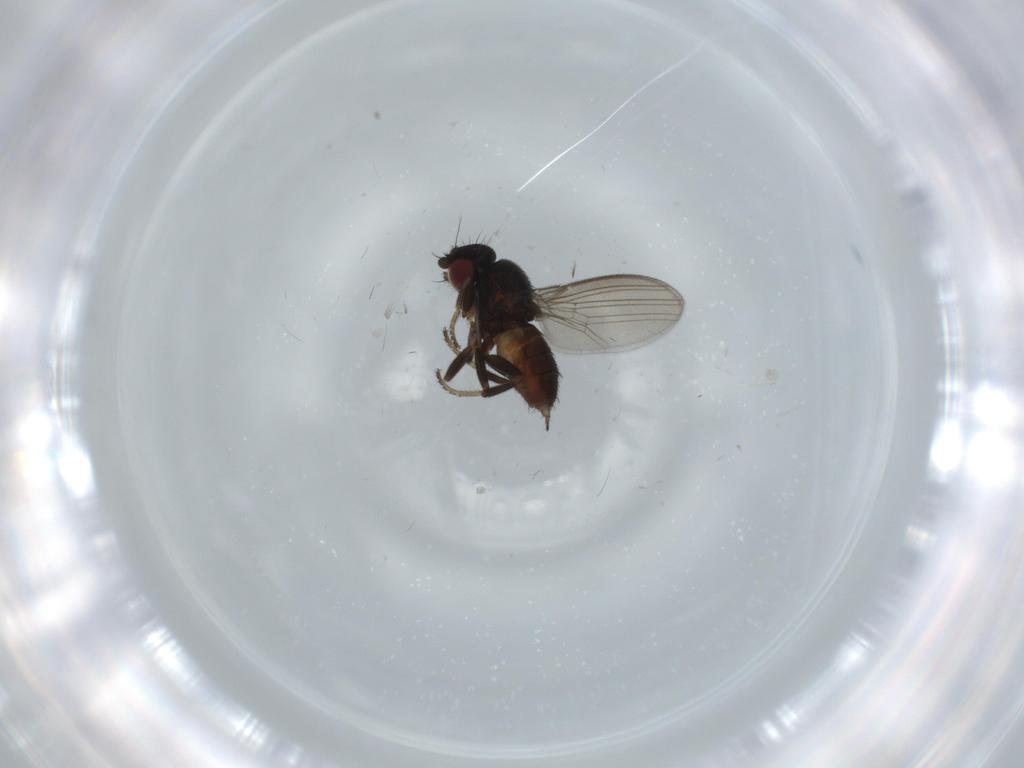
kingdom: Animalia
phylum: Arthropoda
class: Insecta
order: Diptera
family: Milichiidae
